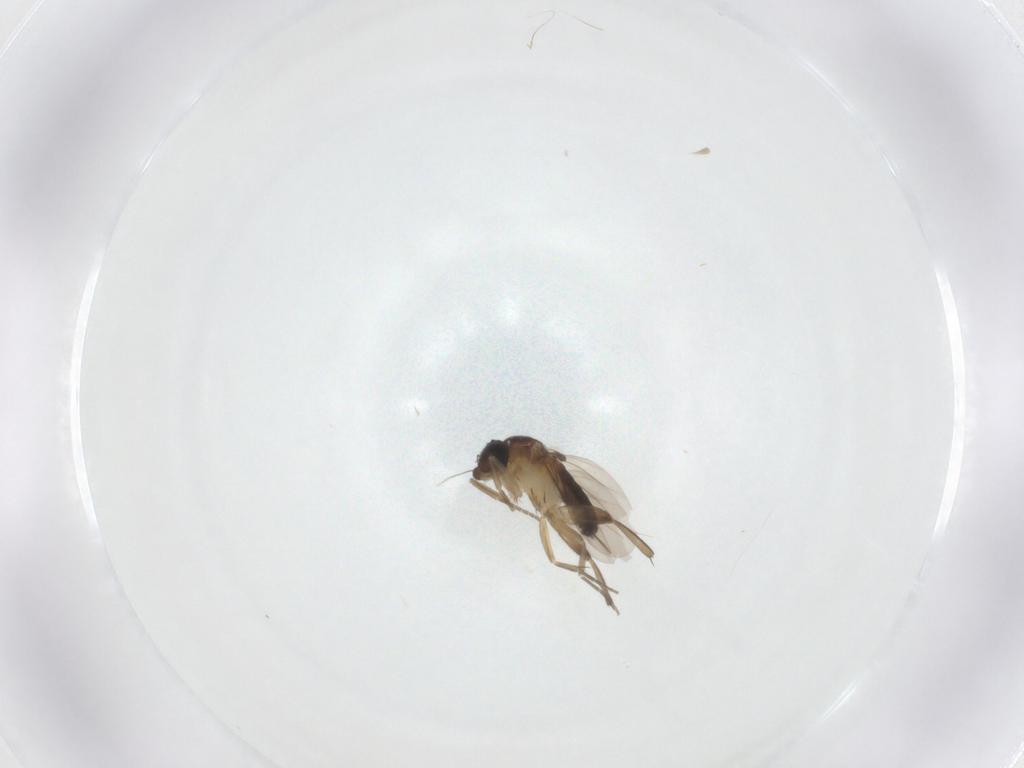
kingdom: Animalia
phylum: Arthropoda
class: Insecta
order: Diptera
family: Phoridae
